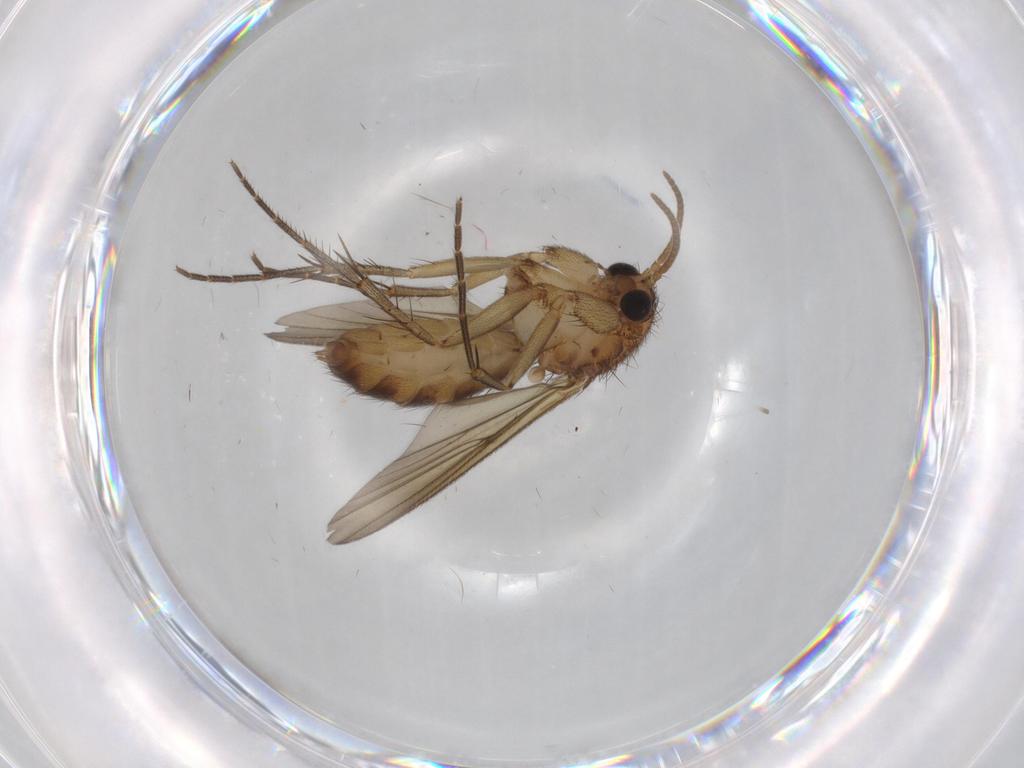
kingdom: Animalia
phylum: Arthropoda
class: Insecta
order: Diptera
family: Mycetophilidae
